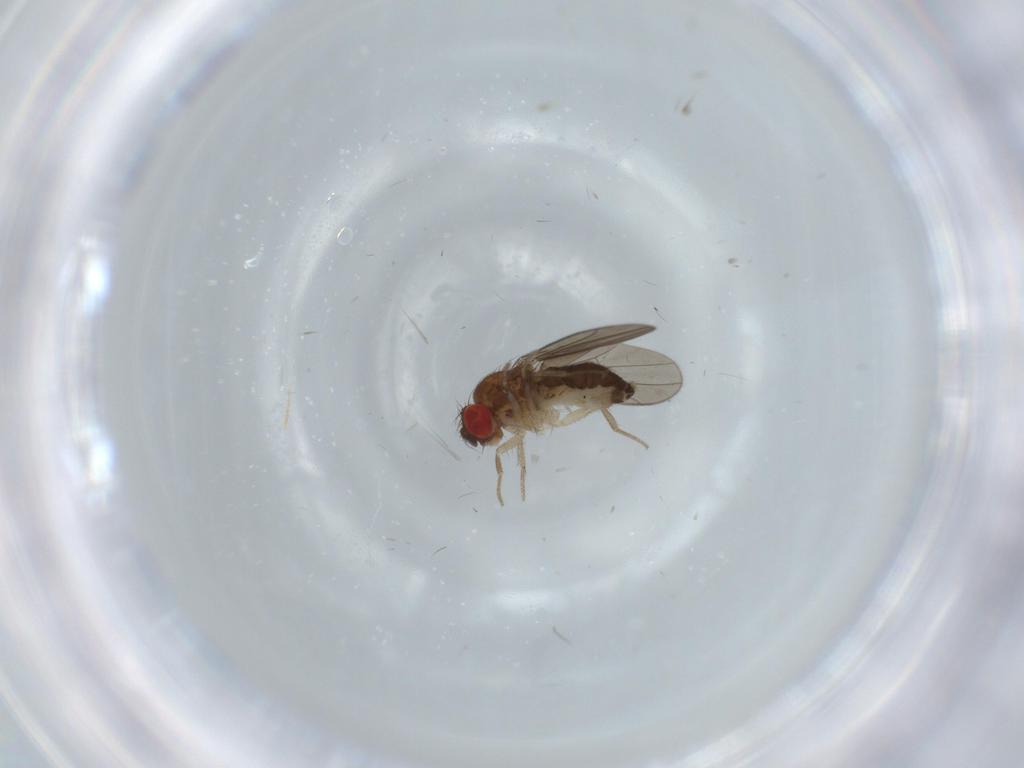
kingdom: Animalia
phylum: Arthropoda
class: Insecta
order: Diptera
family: Drosophilidae
